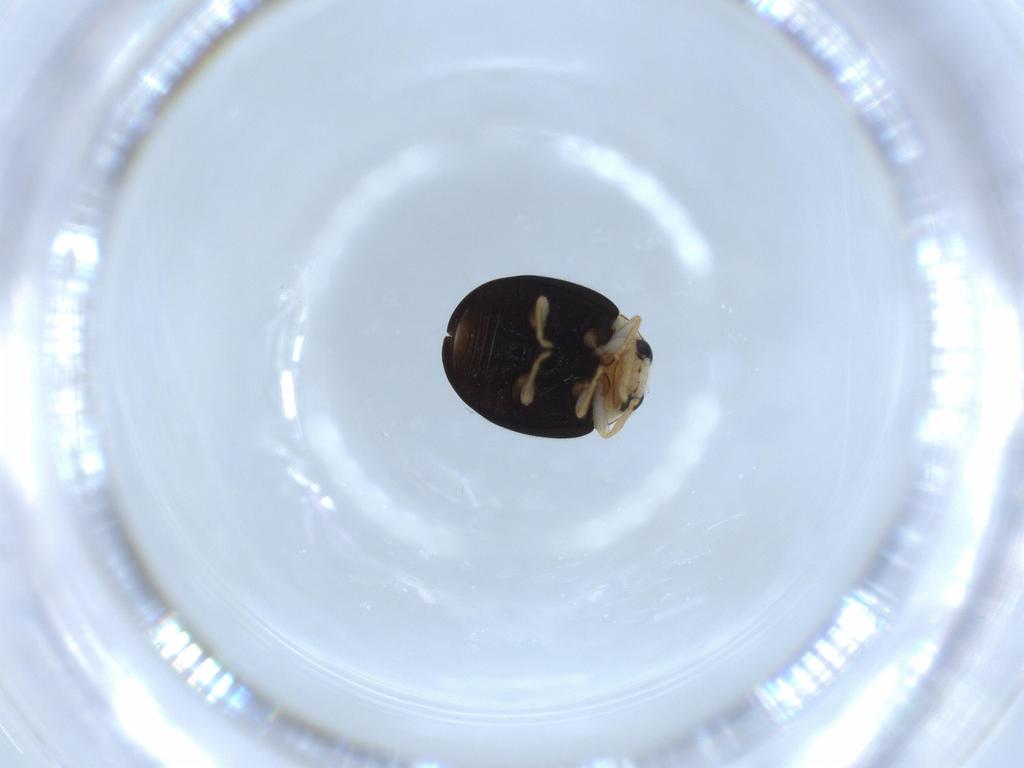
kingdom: Animalia
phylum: Arthropoda
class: Insecta
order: Coleoptera
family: Coccinellidae
